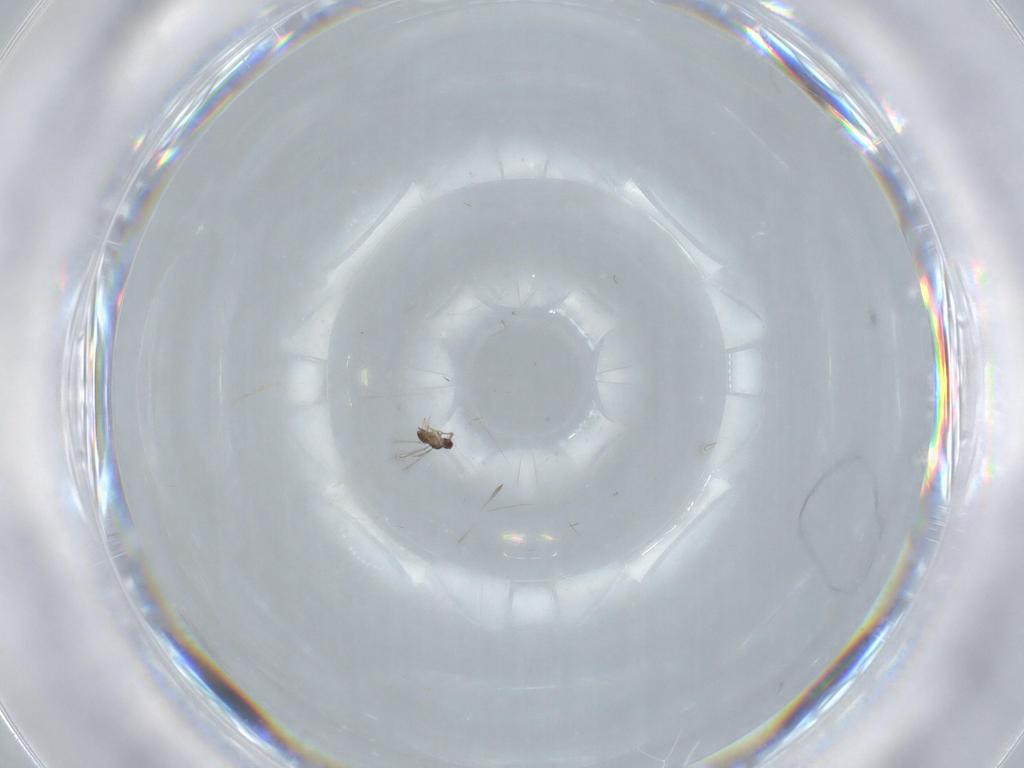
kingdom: Animalia
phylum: Arthropoda
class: Insecta
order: Hymenoptera
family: Mymaridae
